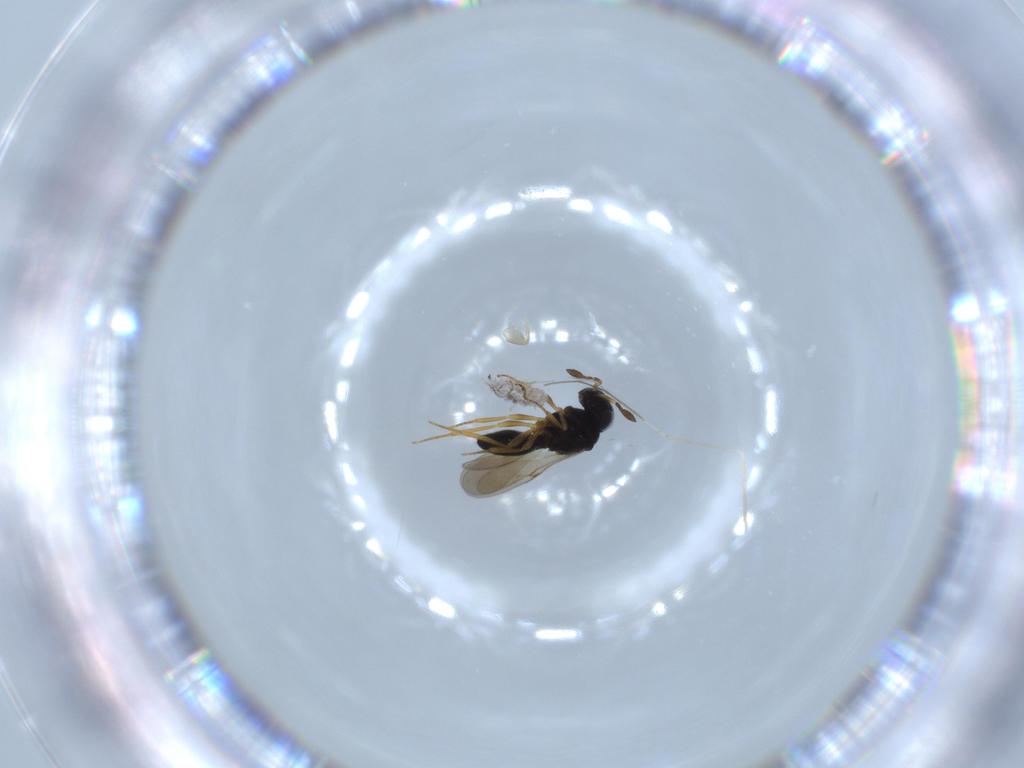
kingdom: Animalia
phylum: Arthropoda
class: Insecta
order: Hymenoptera
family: Scelionidae
